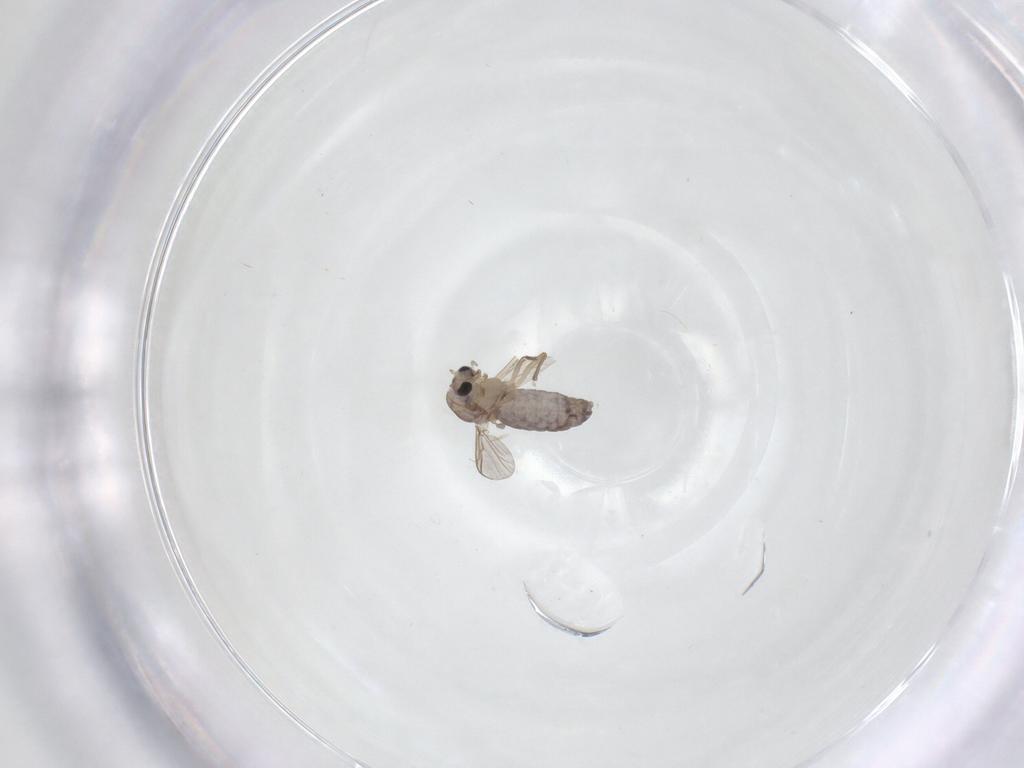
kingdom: Animalia
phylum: Arthropoda
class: Insecta
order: Diptera
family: Chironomidae
